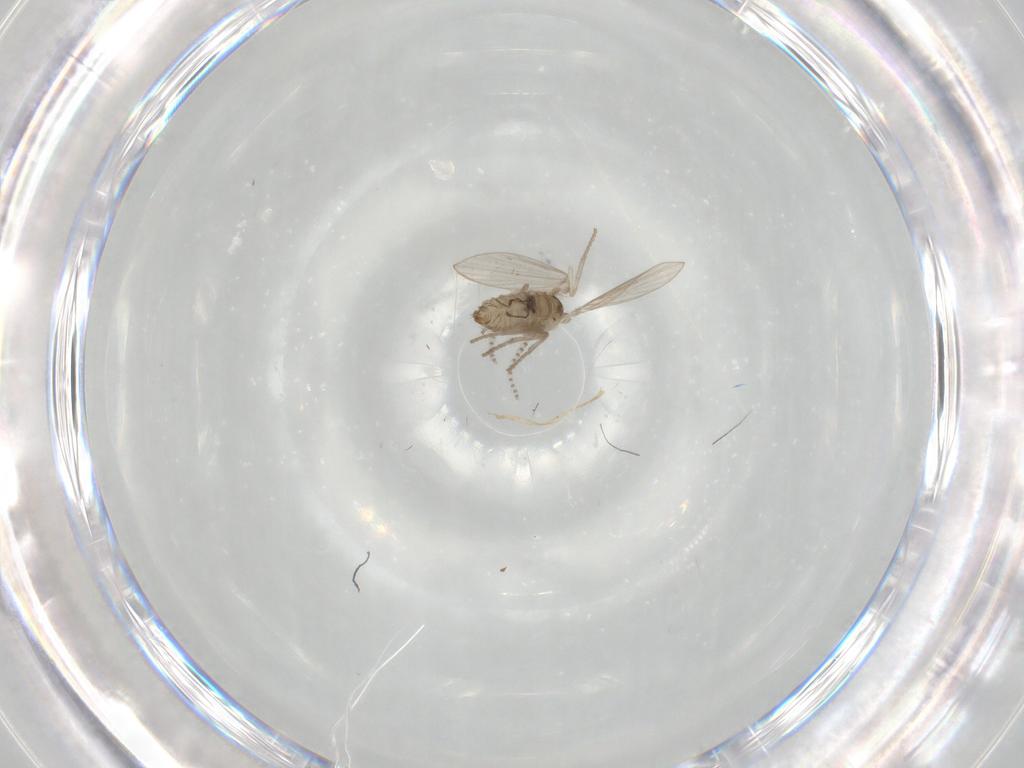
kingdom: Animalia
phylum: Arthropoda
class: Insecta
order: Diptera
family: Psychodidae
